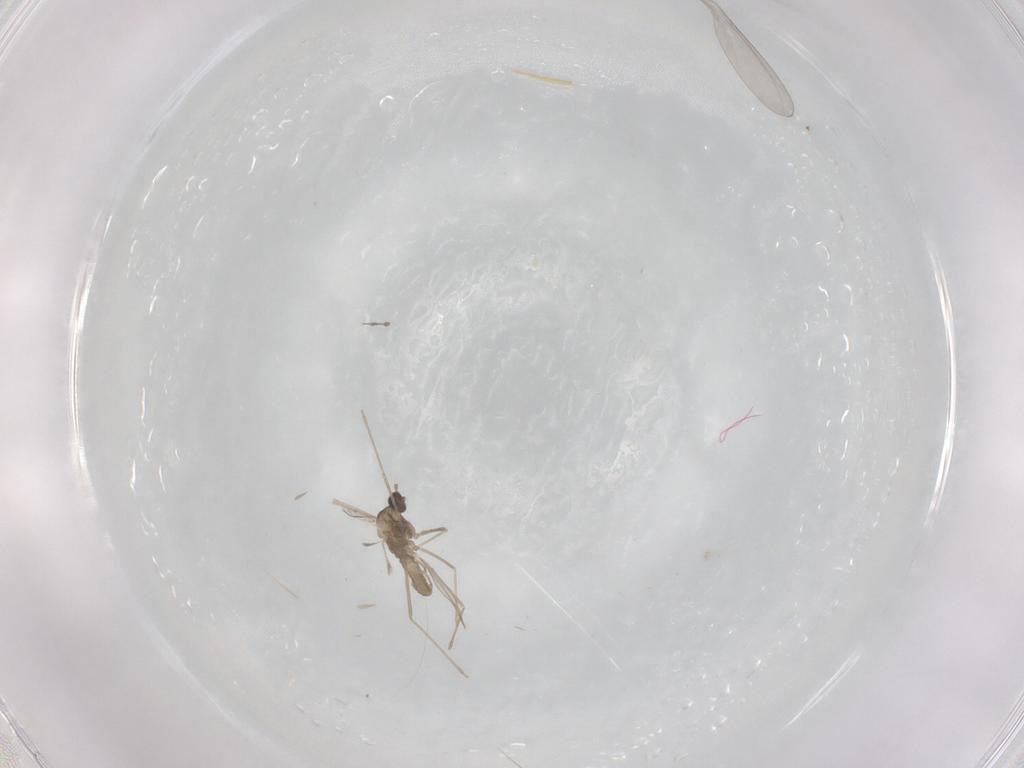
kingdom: Animalia
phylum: Arthropoda
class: Insecta
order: Diptera
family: Cecidomyiidae
